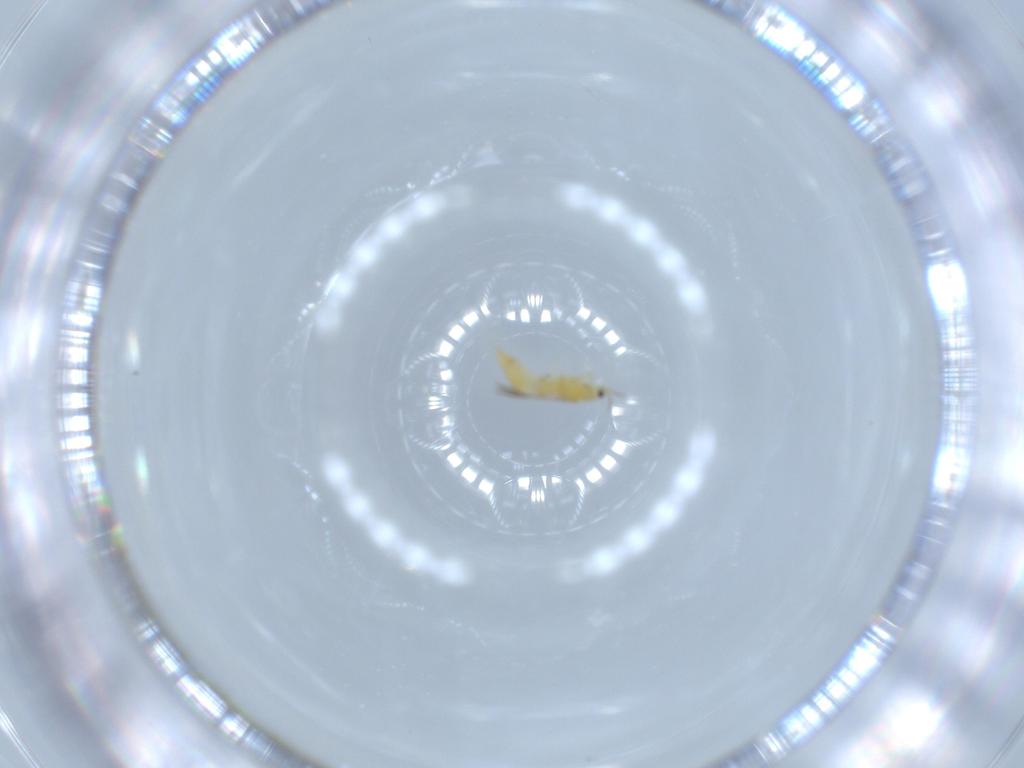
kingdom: Animalia
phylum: Arthropoda
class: Insecta
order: Thysanoptera
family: Thripidae
